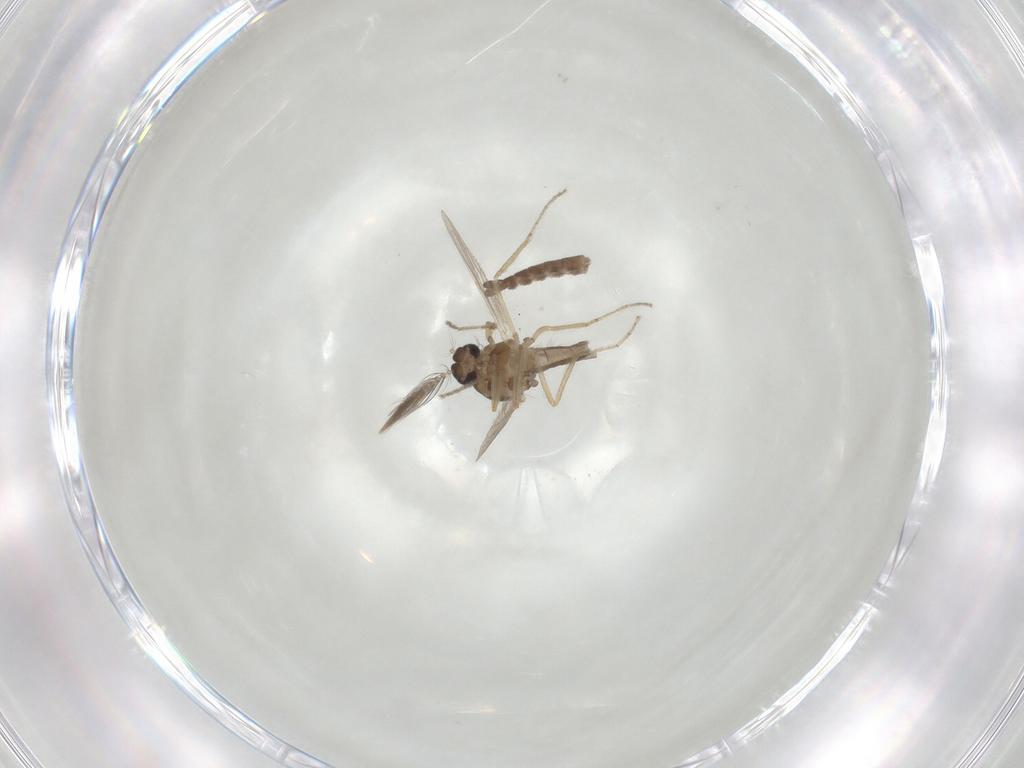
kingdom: Animalia
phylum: Arthropoda
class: Insecta
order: Diptera
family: Ceratopogonidae
